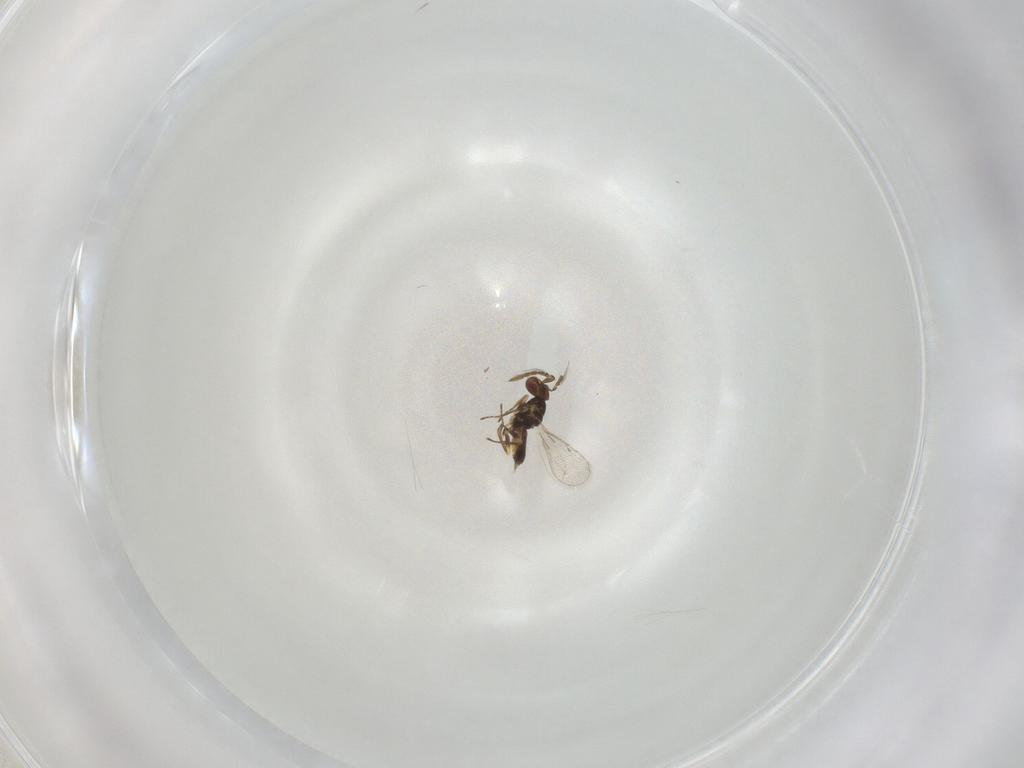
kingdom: Animalia
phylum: Arthropoda
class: Insecta
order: Hymenoptera
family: Eulophidae
